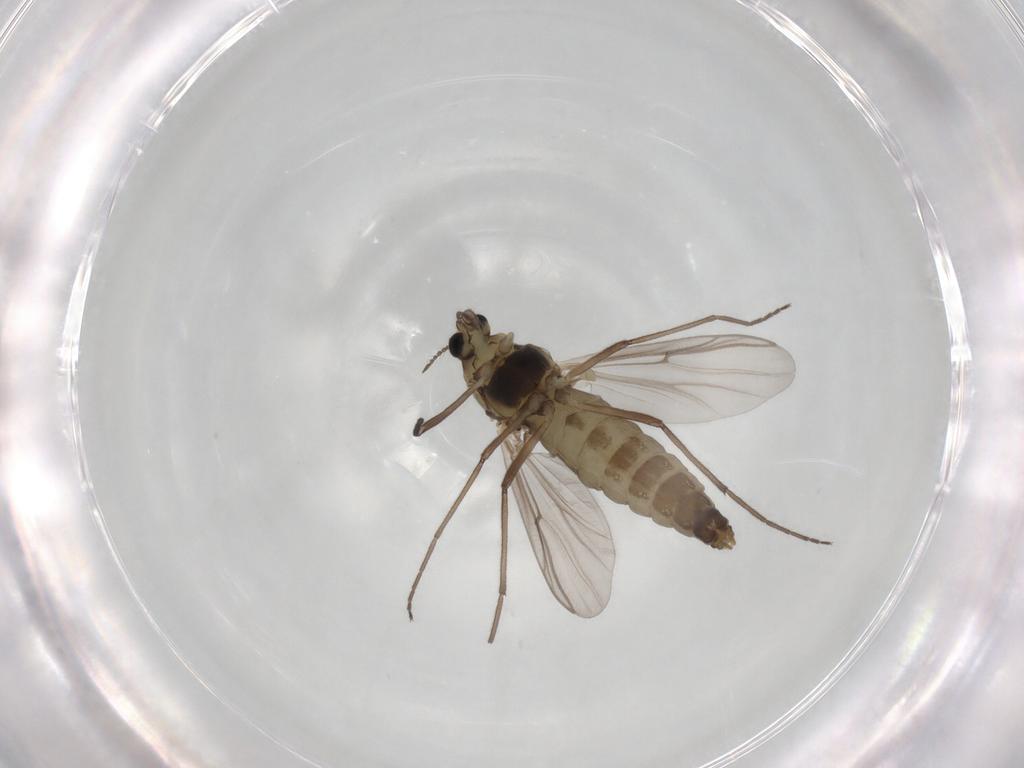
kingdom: Animalia
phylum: Arthropoda
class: Insecta
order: Diptera
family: Chironomidae
